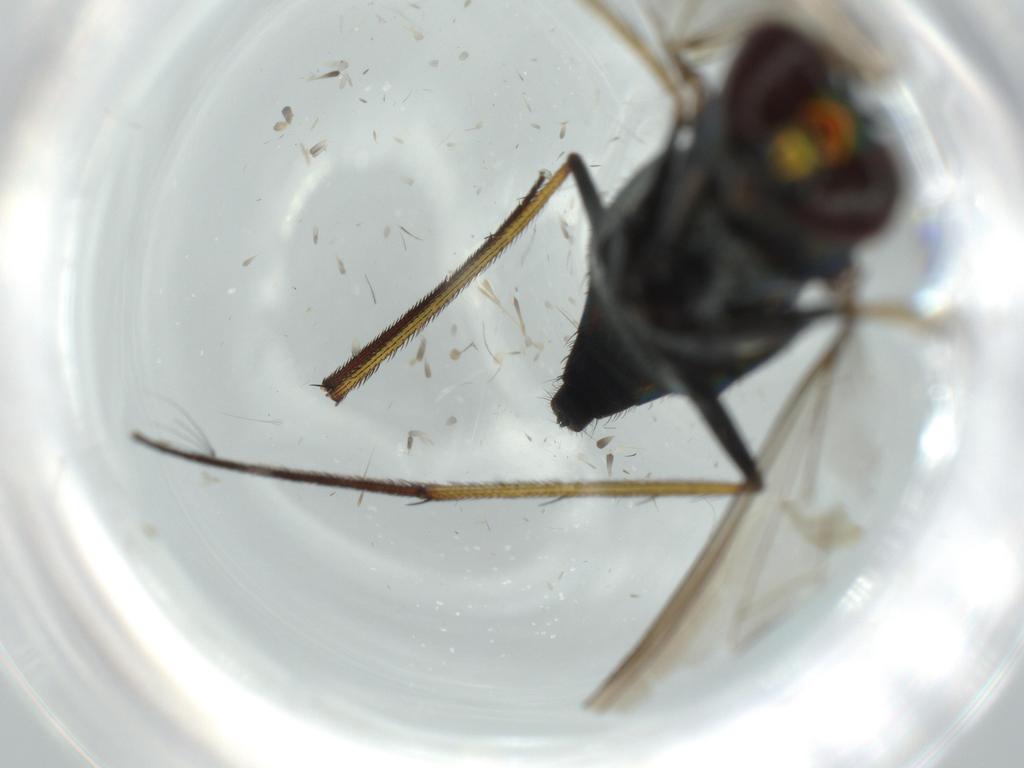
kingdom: Animalia
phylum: Arthropoda
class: Insecta
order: Diptera
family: Dolichopodidae
